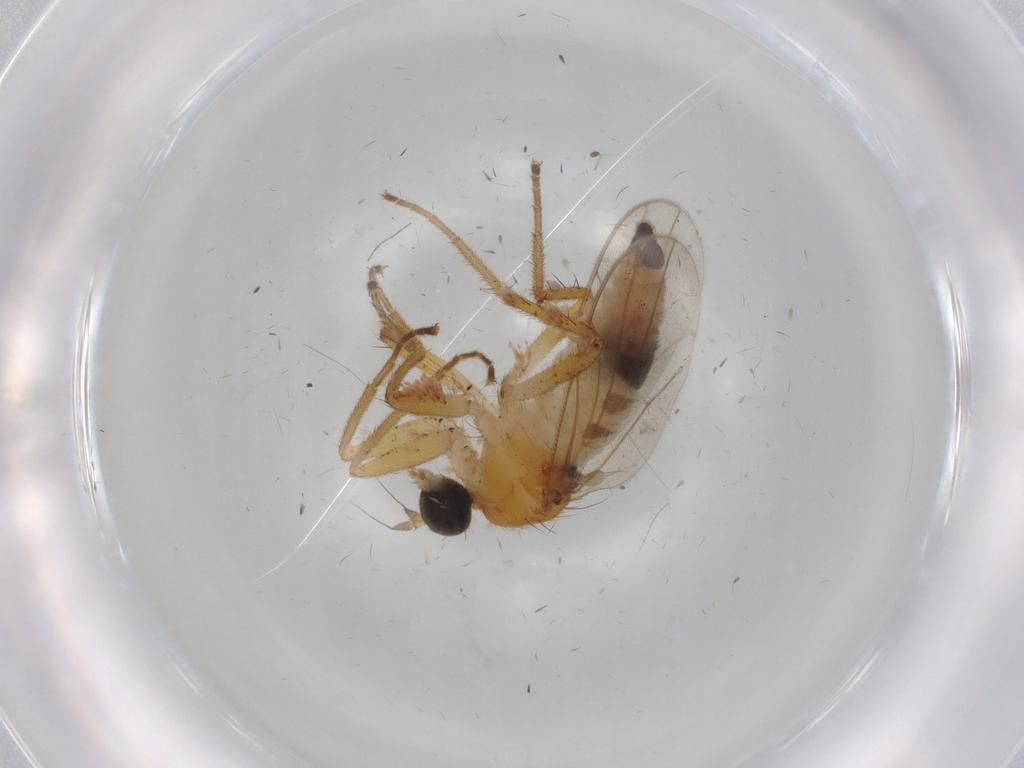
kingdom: Animalia
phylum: Arthropoda
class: Insecta
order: Diptera
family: Hybotidae
